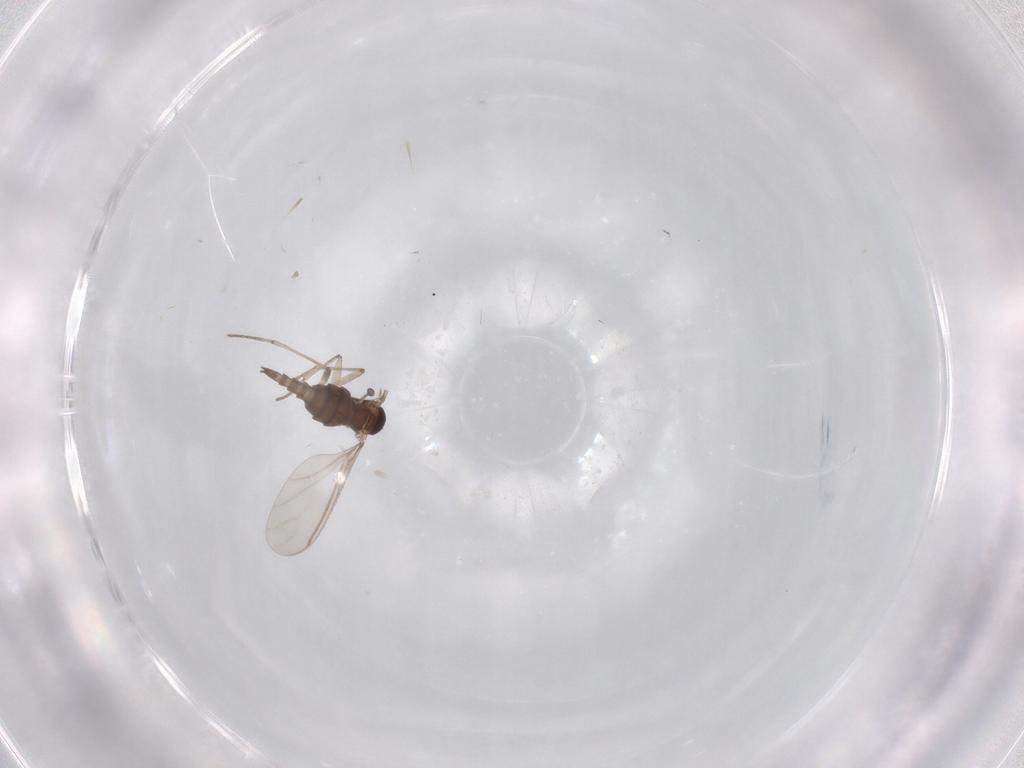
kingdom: Animalia
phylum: Arthropoda
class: Insecta
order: Diptera
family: Sciaridae
